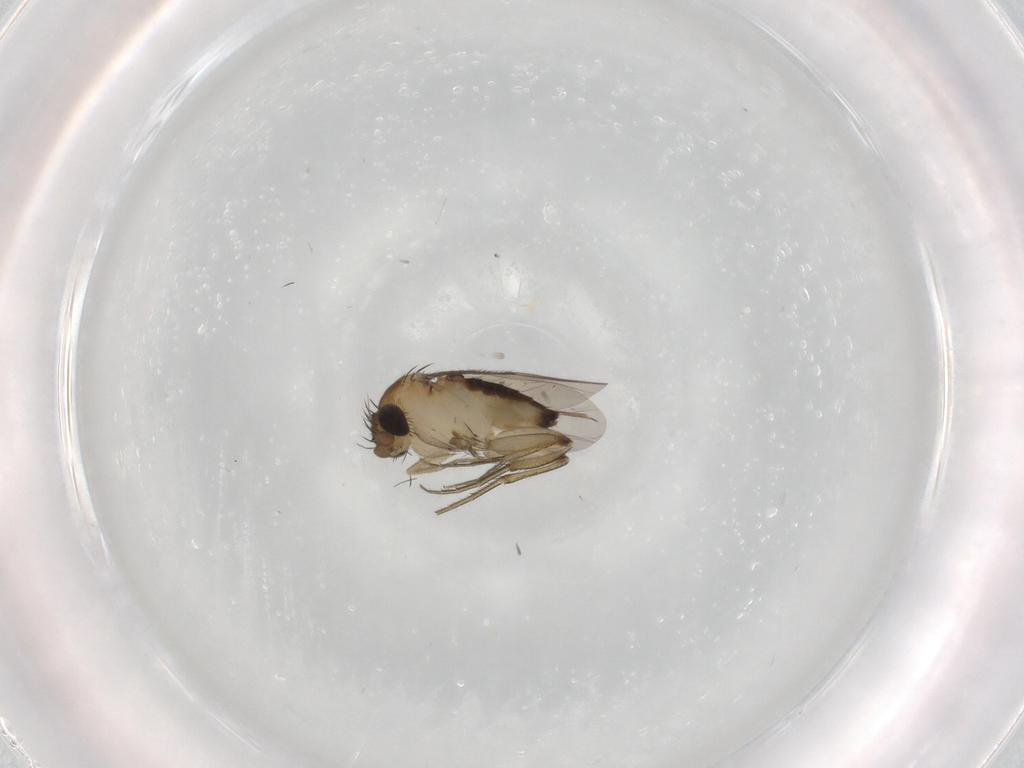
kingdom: Animalia
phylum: Arthropoda
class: Insecta
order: Diptera
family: Phoridae
